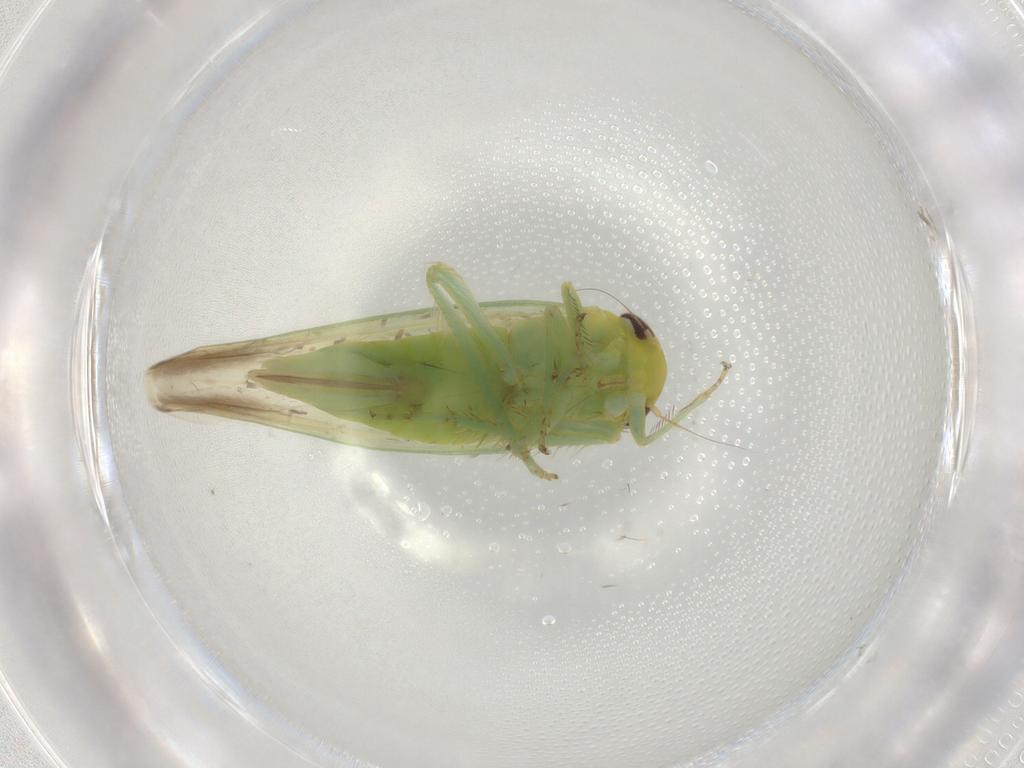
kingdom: Animalia
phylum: Arthropoda
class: Insecta
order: Hemiptera
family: Cicadellidae
